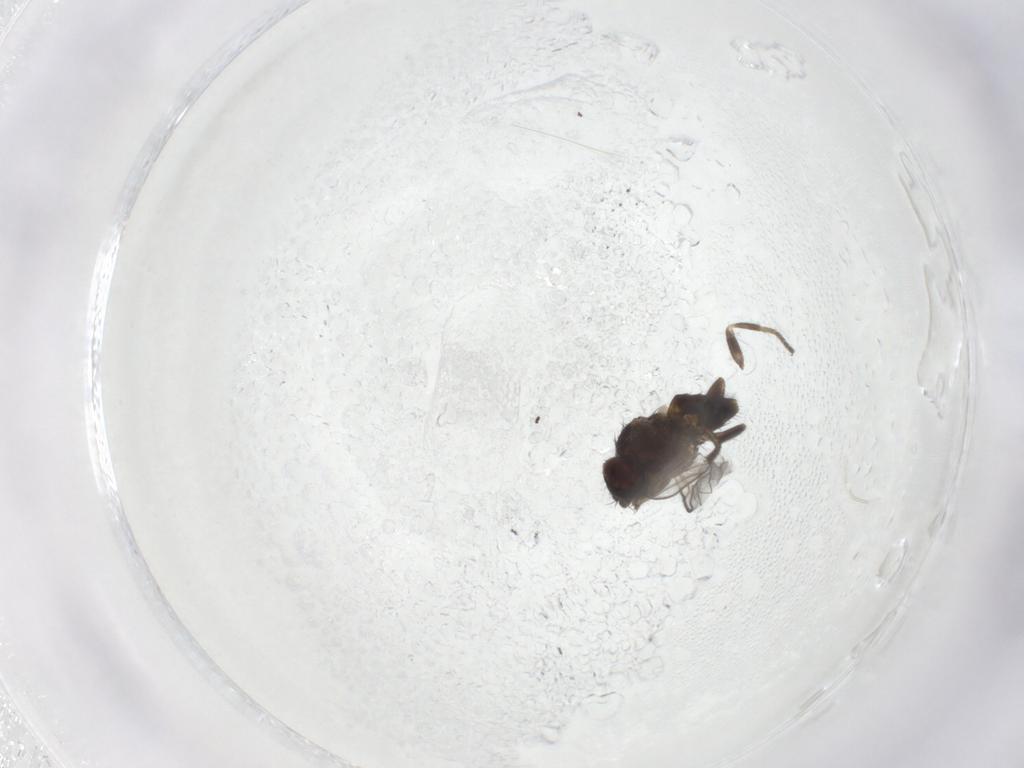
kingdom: Animalia
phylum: Arthropoda
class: Insecta
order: Diptera
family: Milichiidae
